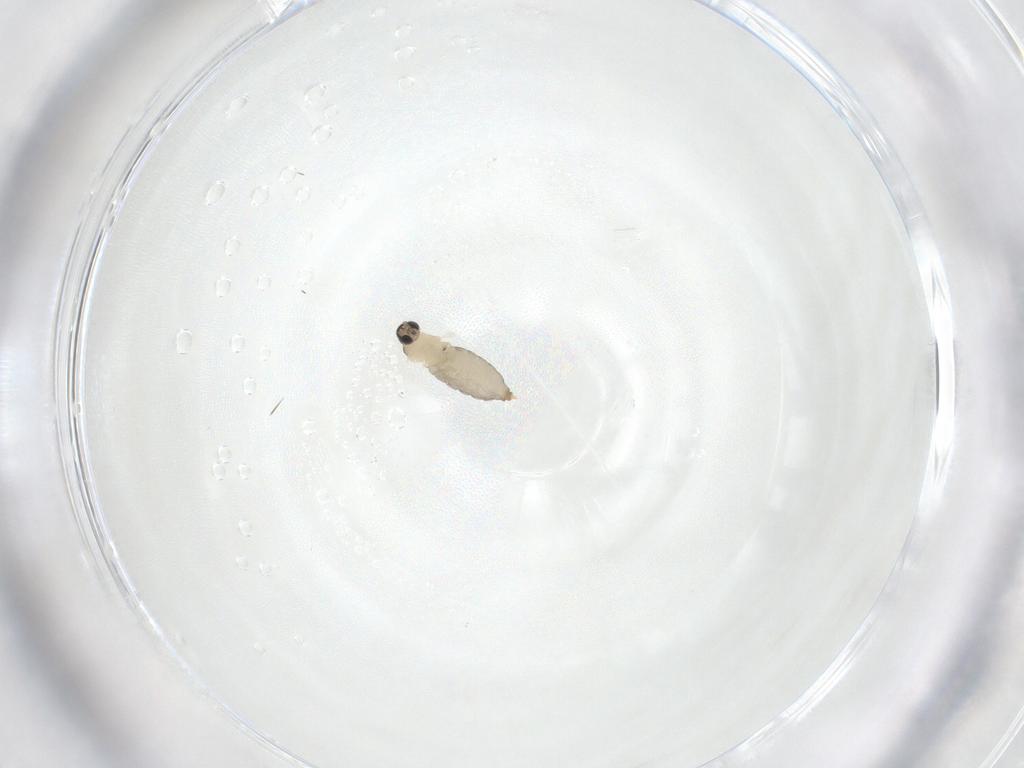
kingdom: Animalia
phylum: Arthropoda
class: Insecta
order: Diptera
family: Cecidomyiidae
